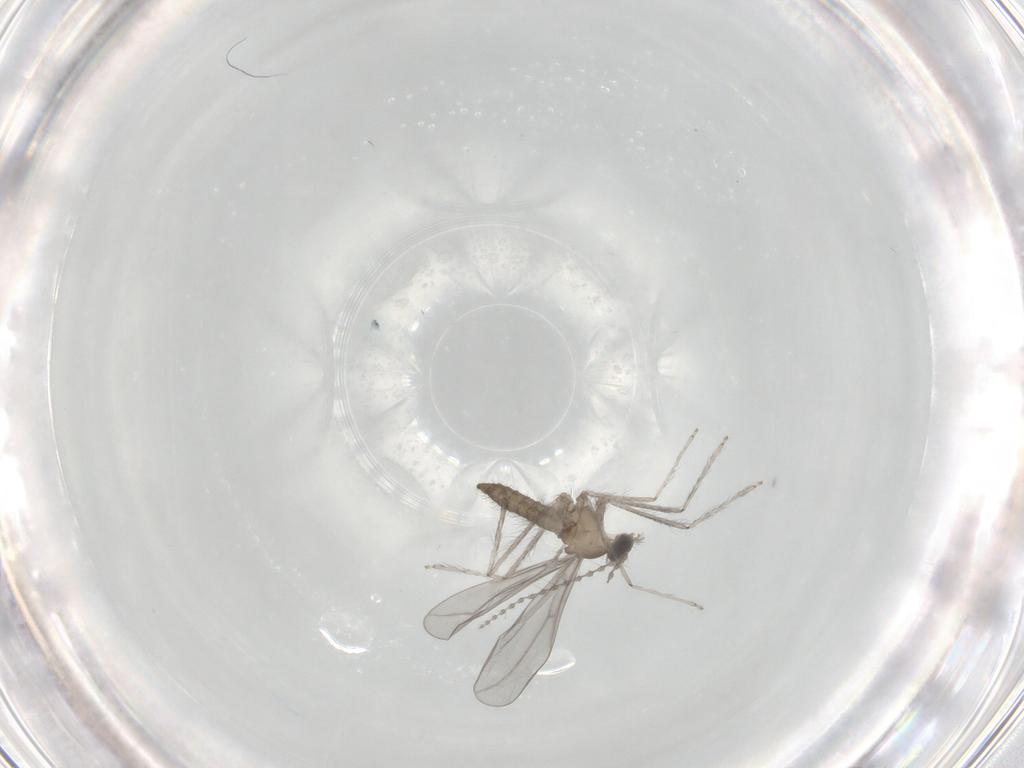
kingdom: Animalia
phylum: Arthropoda
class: Insecta
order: Diptera
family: Cecidomyiidae
